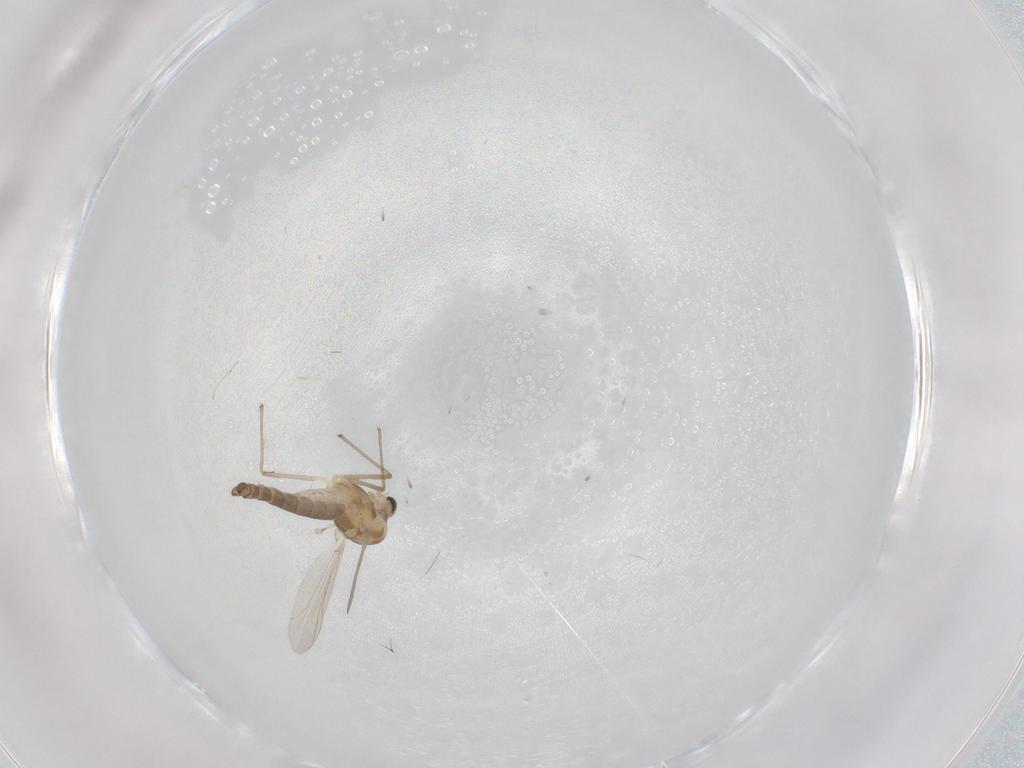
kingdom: Animalia
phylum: Arthropoda
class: Insecta
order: Diptera
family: Chironomidae
